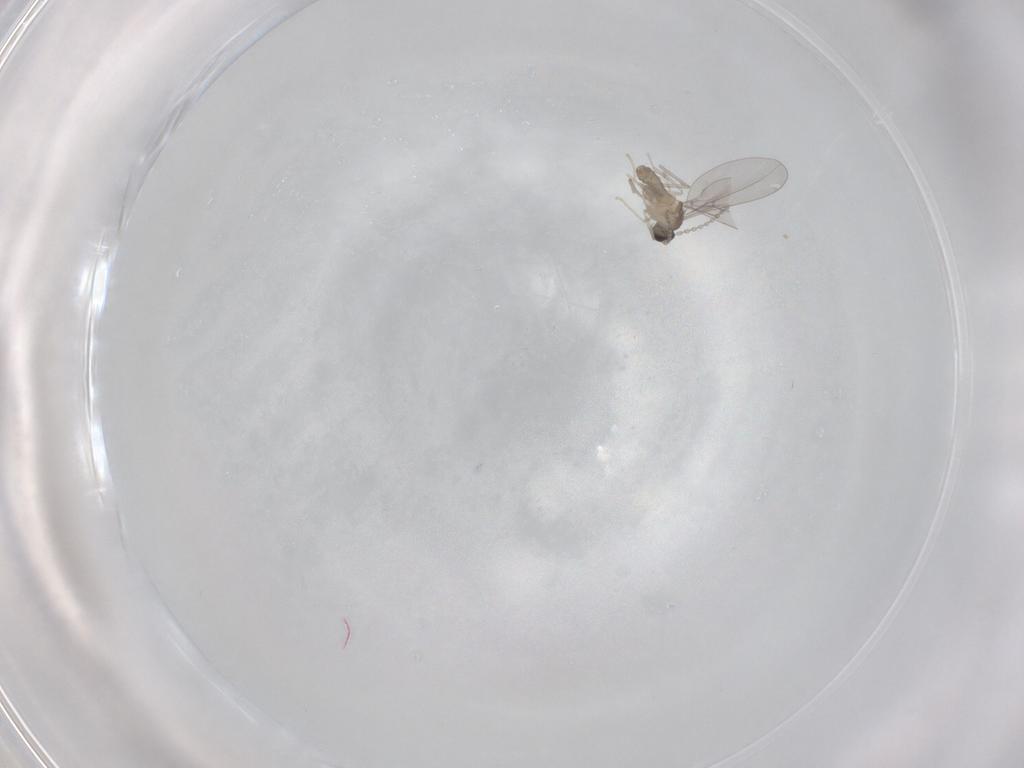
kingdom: Animalia
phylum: Arthropoda
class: Insecta
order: Diptera
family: Cecidomyiidae
